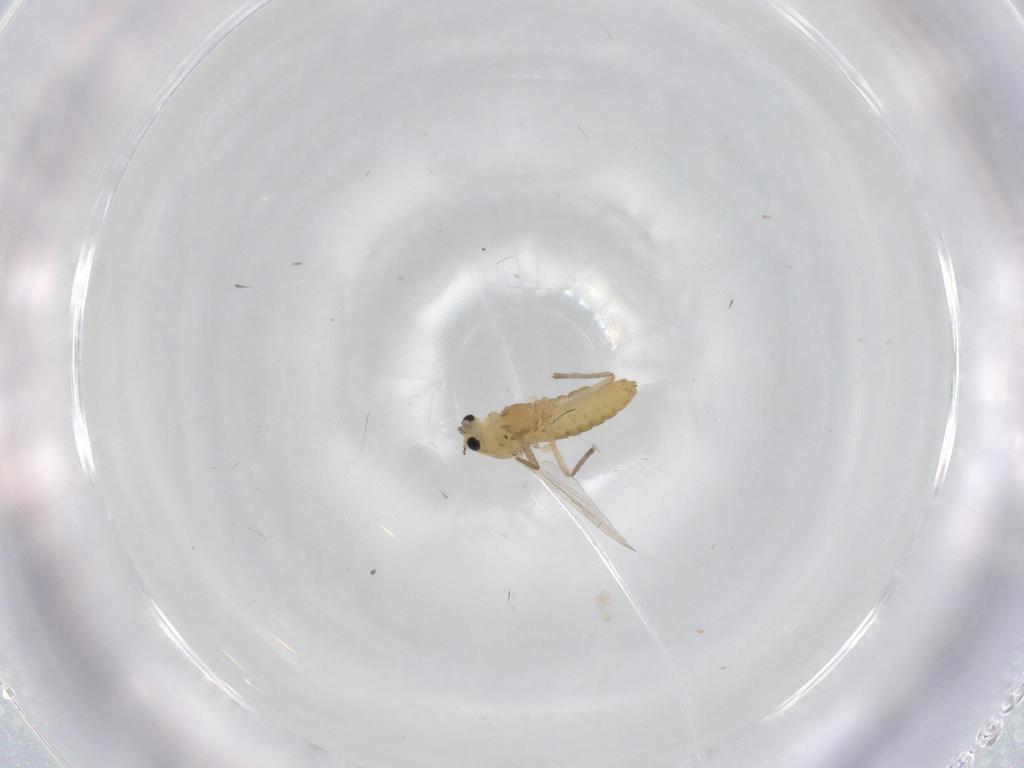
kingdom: Animalia
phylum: Arthropoda
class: Insecta
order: Diptera
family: Chironomidae
